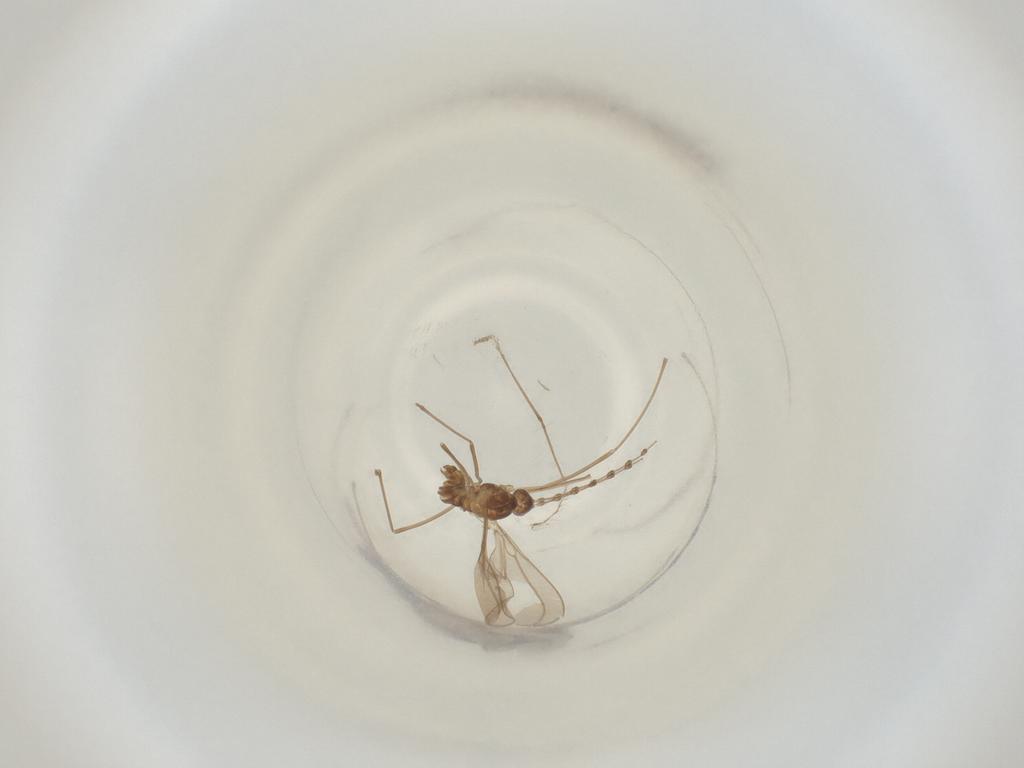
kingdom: Animalia
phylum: Arthropoda
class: Insecta
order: Diptera
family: Cecidomyiidae
